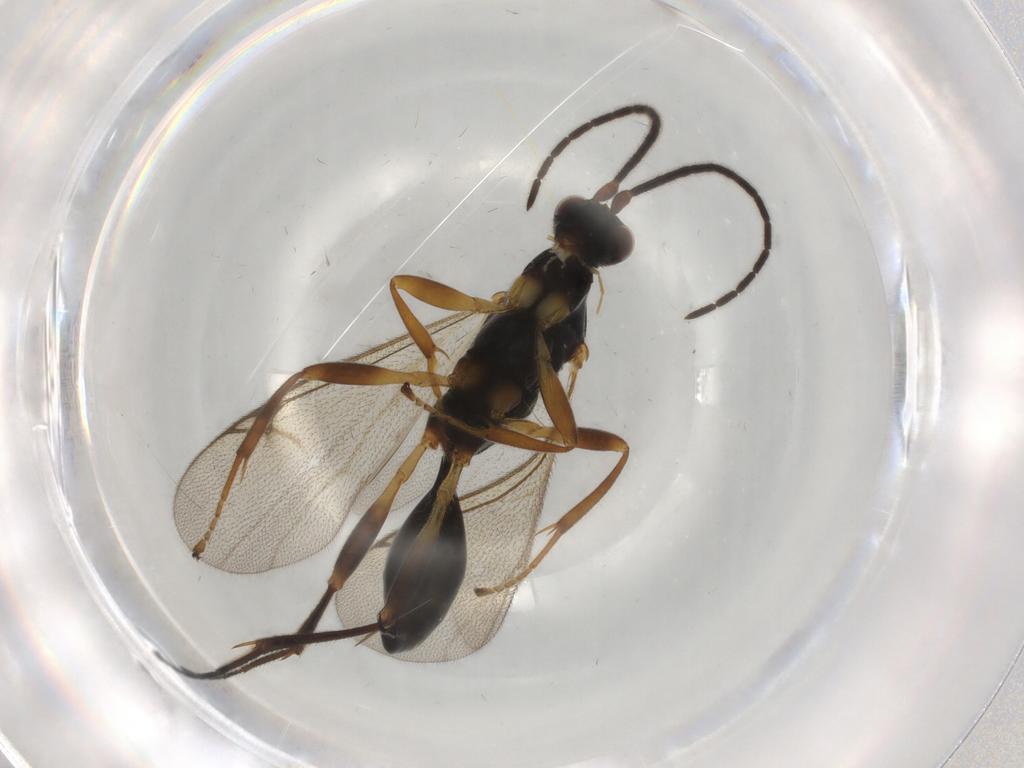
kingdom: Animalia
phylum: Arthropoda
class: Insecta
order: Hymenoptera
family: Proctotrupidae
